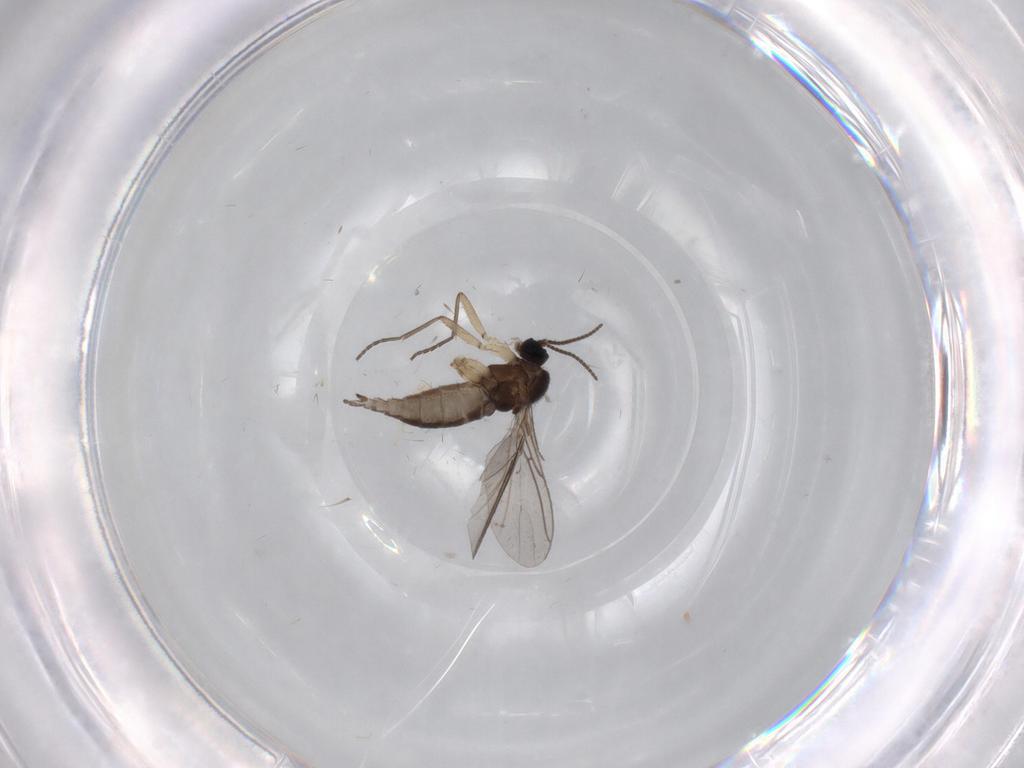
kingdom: Animalia
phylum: Arthropoda
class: Insecta
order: Diptera
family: Sciaridae
